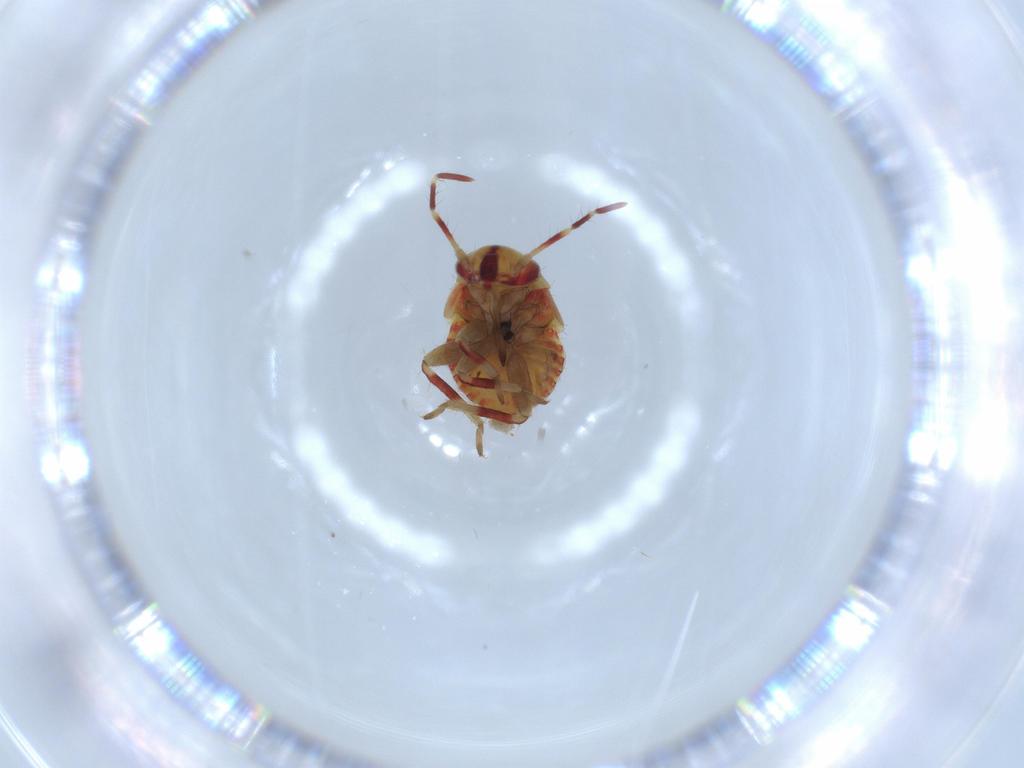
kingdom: Animalia
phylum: Arthropoda
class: Insecta
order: Hemiptera
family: Miridae
